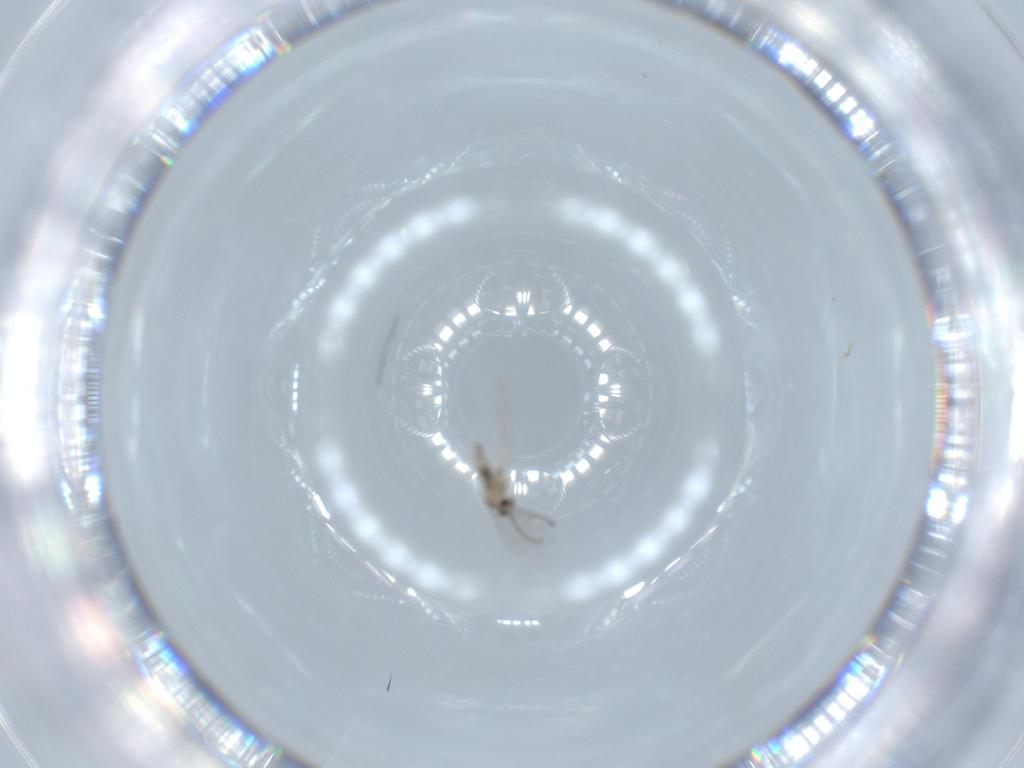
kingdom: Animalia
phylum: Arthropoda
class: Insecta
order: Diptera
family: Cecidomyiidae
